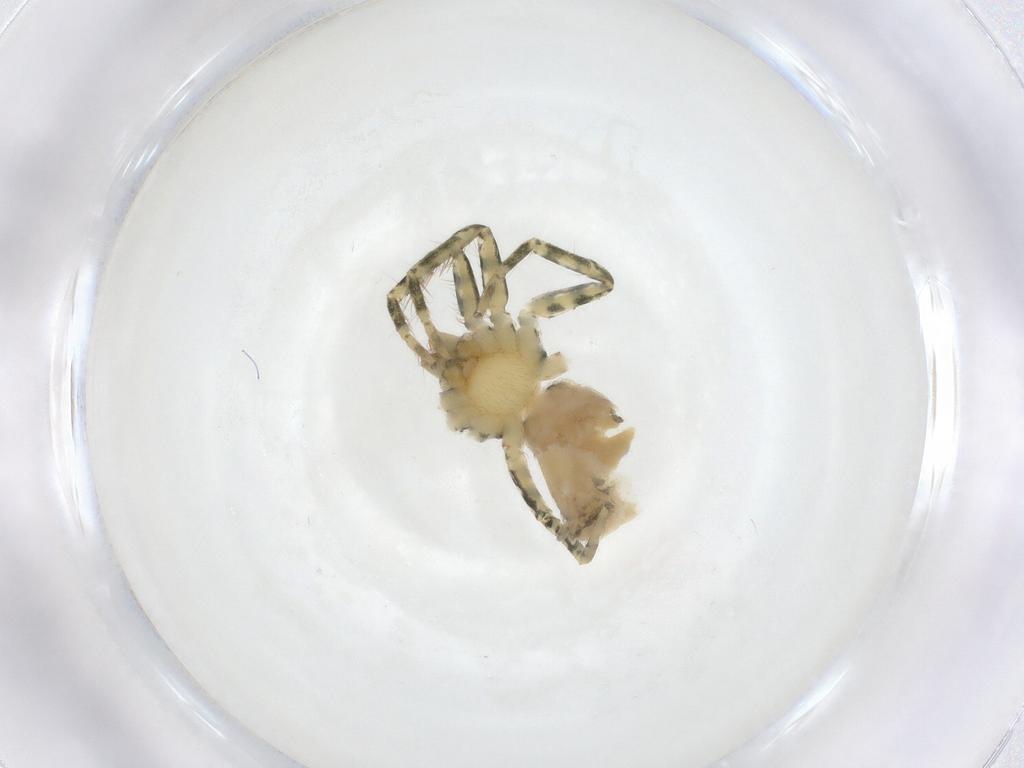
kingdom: Animalia
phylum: Arthropoda
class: Arachnida
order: Araneae
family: Selenopidae
